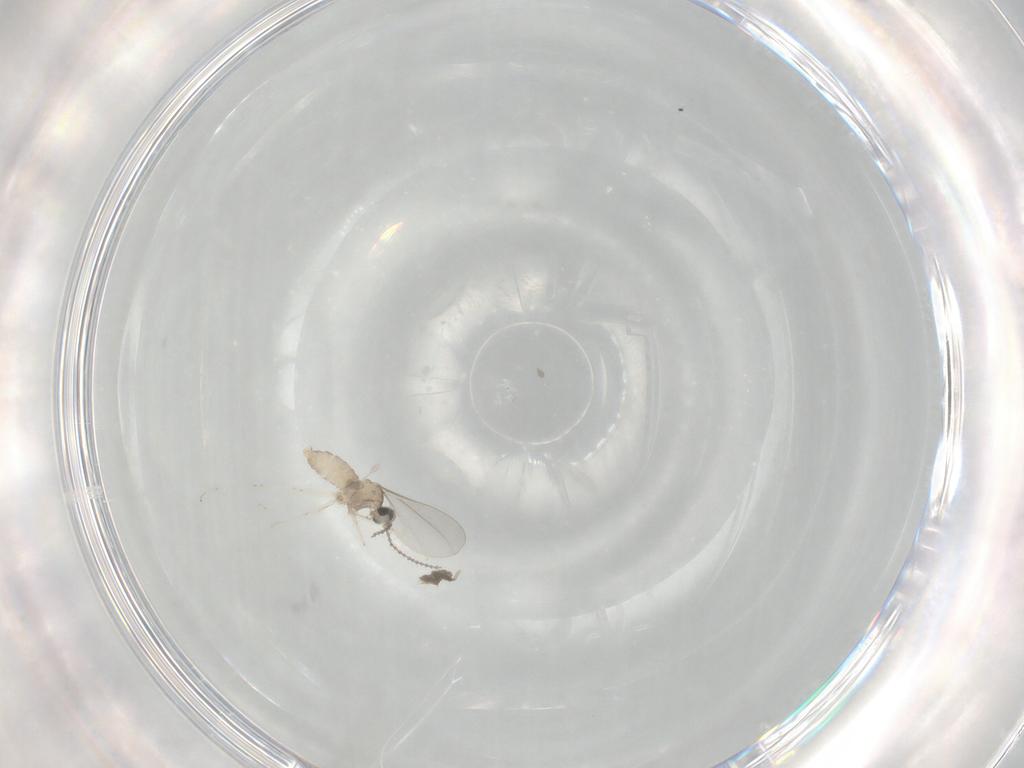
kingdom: Animalia
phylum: Arthropoda
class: Insecta
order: Diptera
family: Cecidomyiidae
